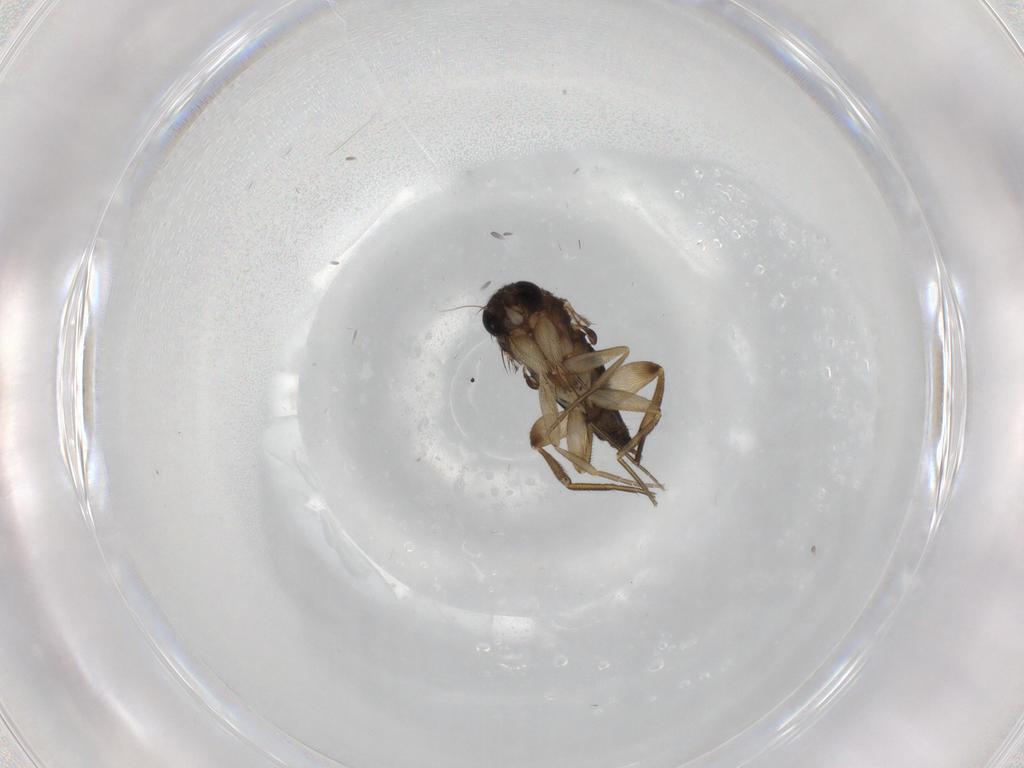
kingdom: Animalia
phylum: Arthropoda
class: Insecta
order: Diptera
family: Phoridae
